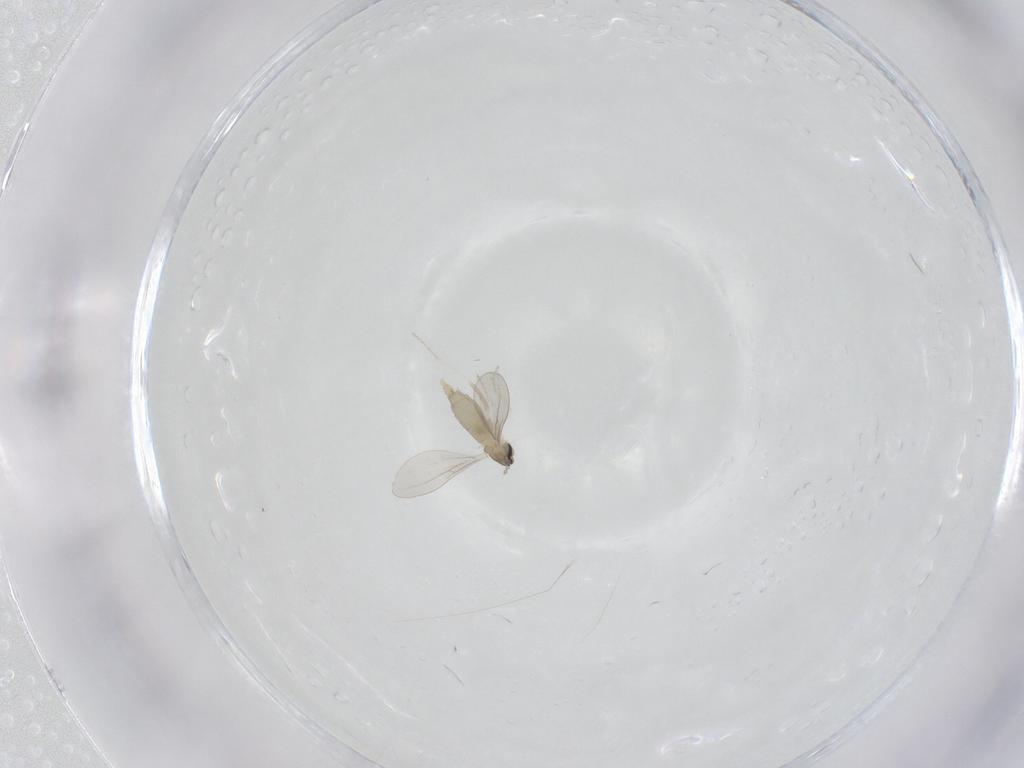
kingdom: Animalia
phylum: Arthropoda
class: Insecta
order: Diptera
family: Cecidomyiidae
